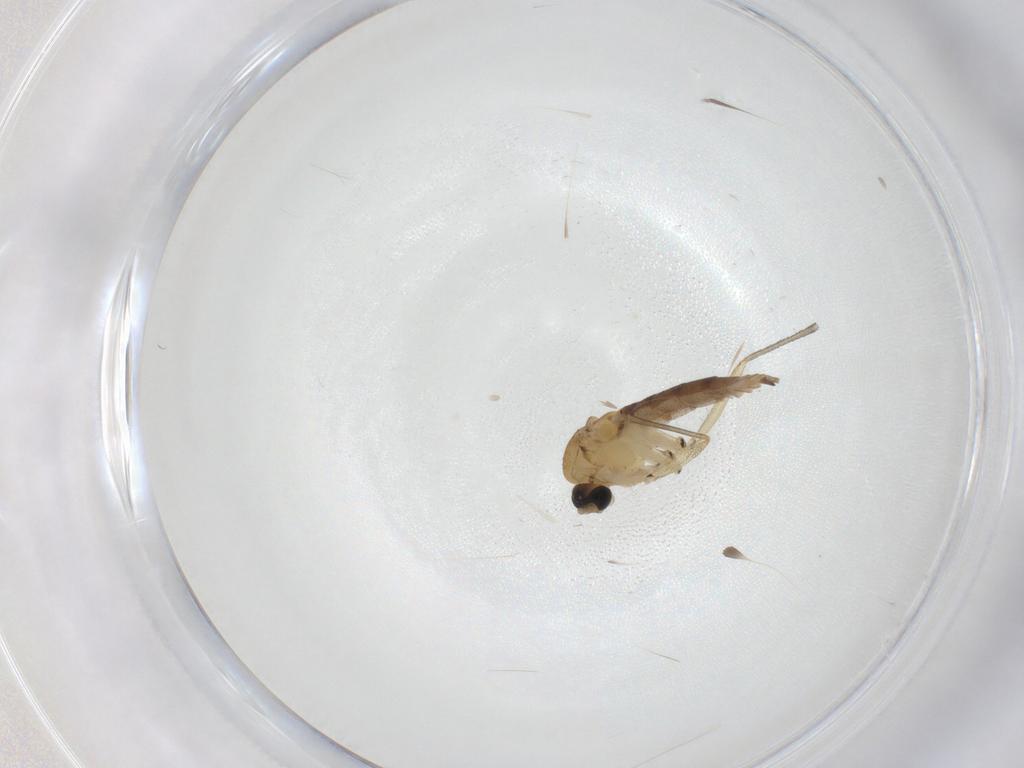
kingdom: Animalia
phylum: Arthropoda
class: Insecta
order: Diptera
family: Sciaridae
